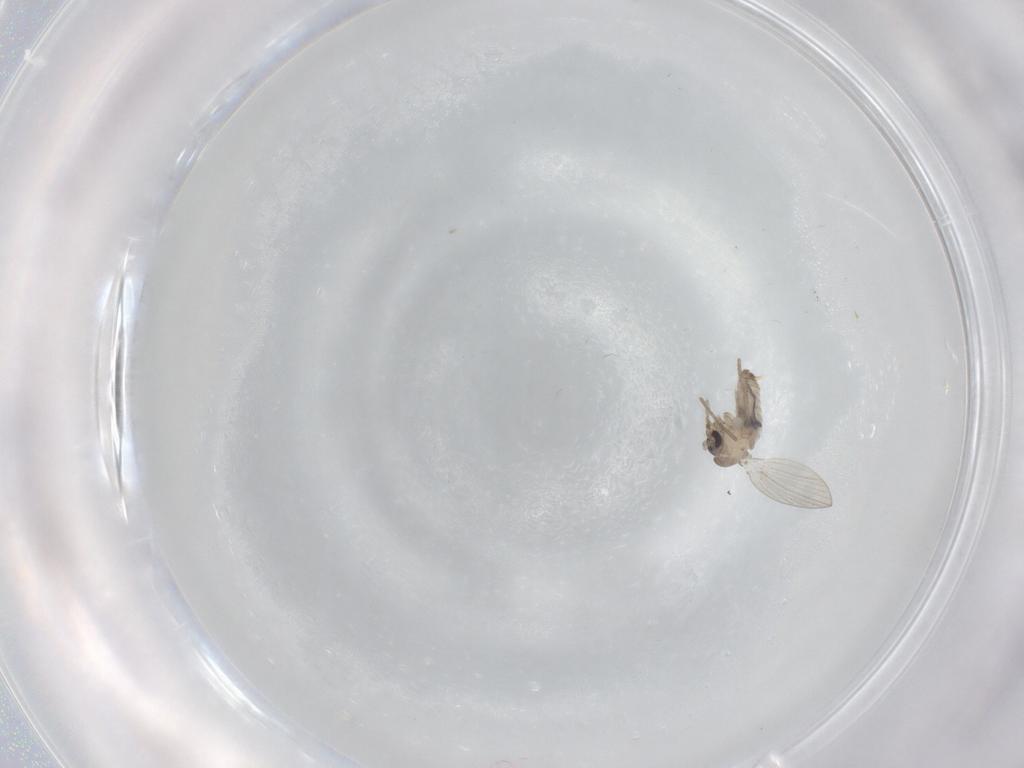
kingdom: Animalia
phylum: Arthropoda
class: Insecta
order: Diptera
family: Psychodidae
